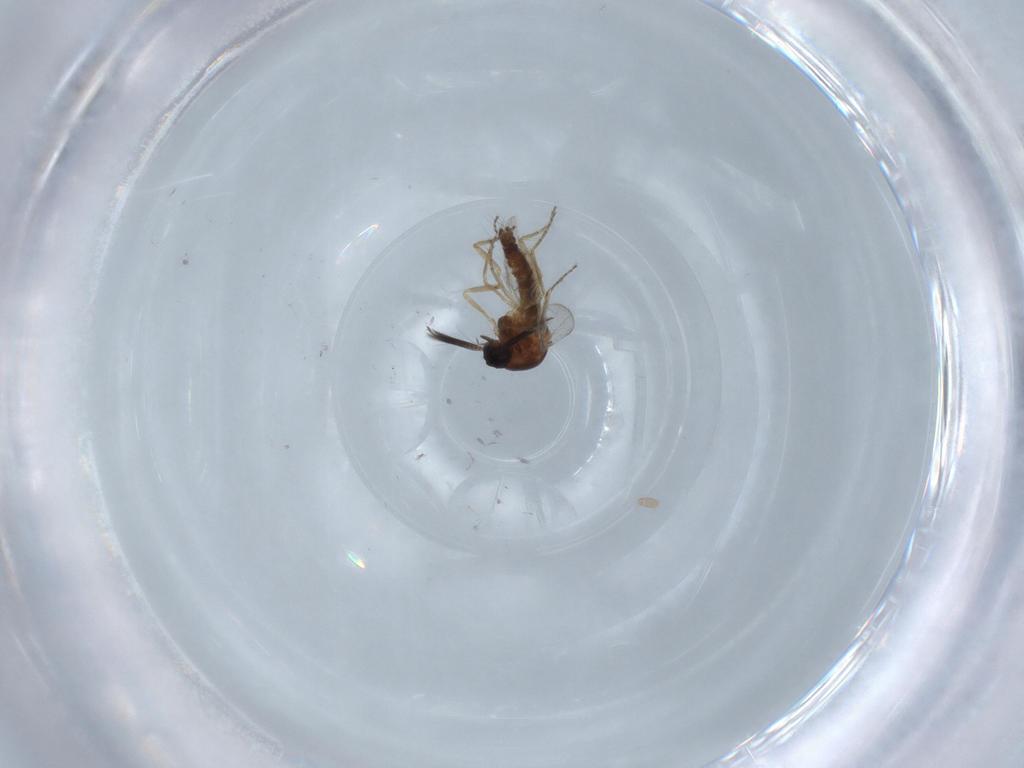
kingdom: Animalia
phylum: Arthropoda
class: Insecta
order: Diptera
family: Ceratopogonidae
